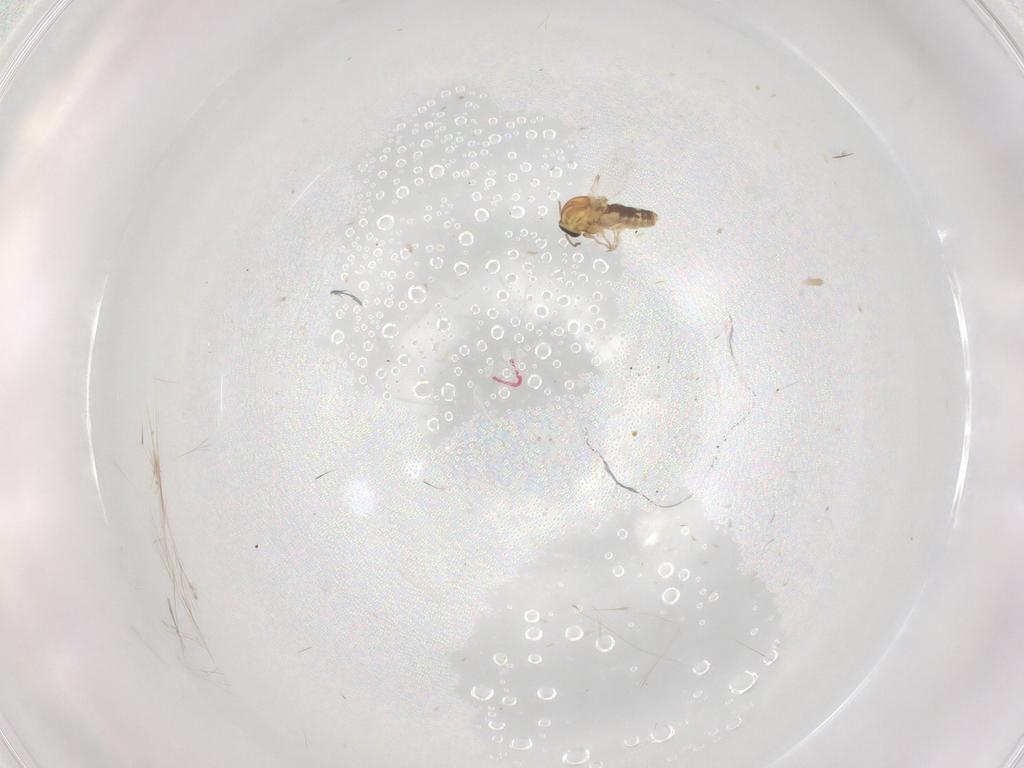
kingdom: Animalia
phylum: Arthropoda
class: Insecta
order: Diptera
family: Ceratopogonidae
